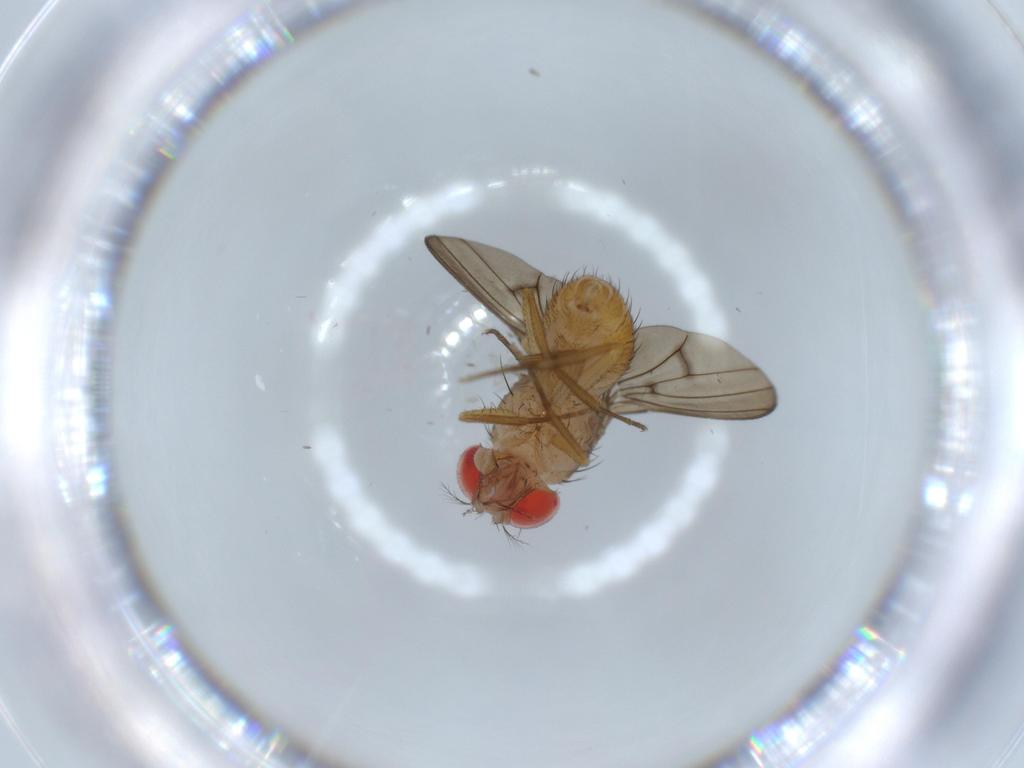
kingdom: Animalia
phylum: Arthropoda
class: Insecta
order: Diptera
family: Drosophilidae
